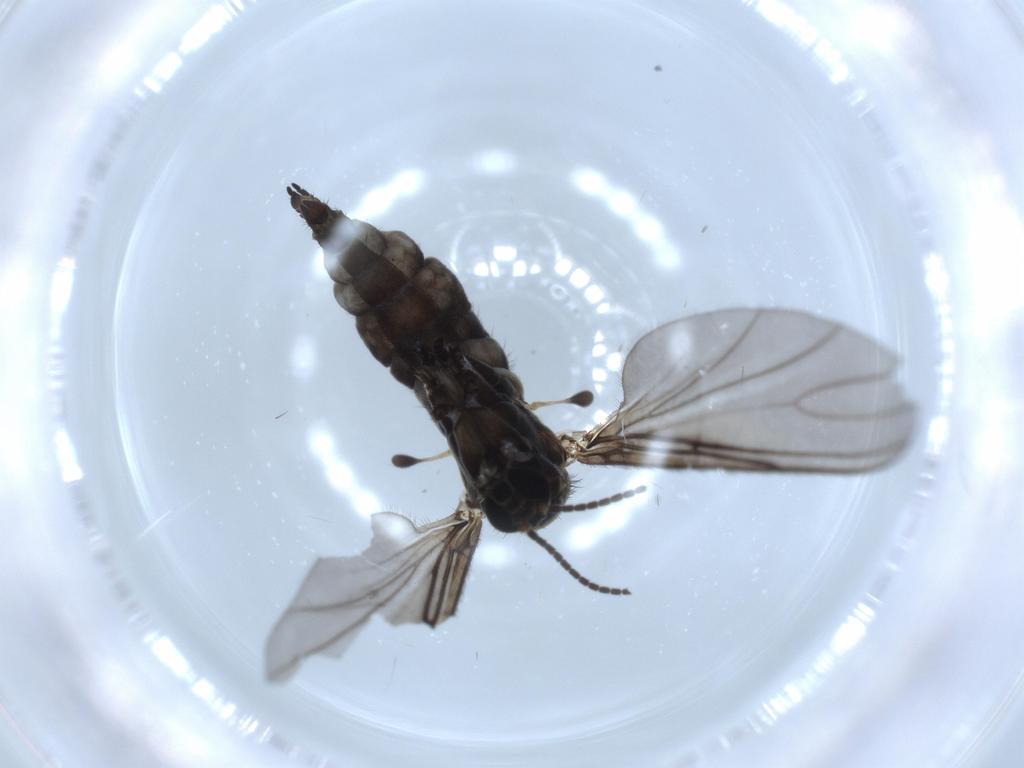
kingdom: Animalia
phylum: Arthropoda
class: Insecta
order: Diptera
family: Sciaridae
